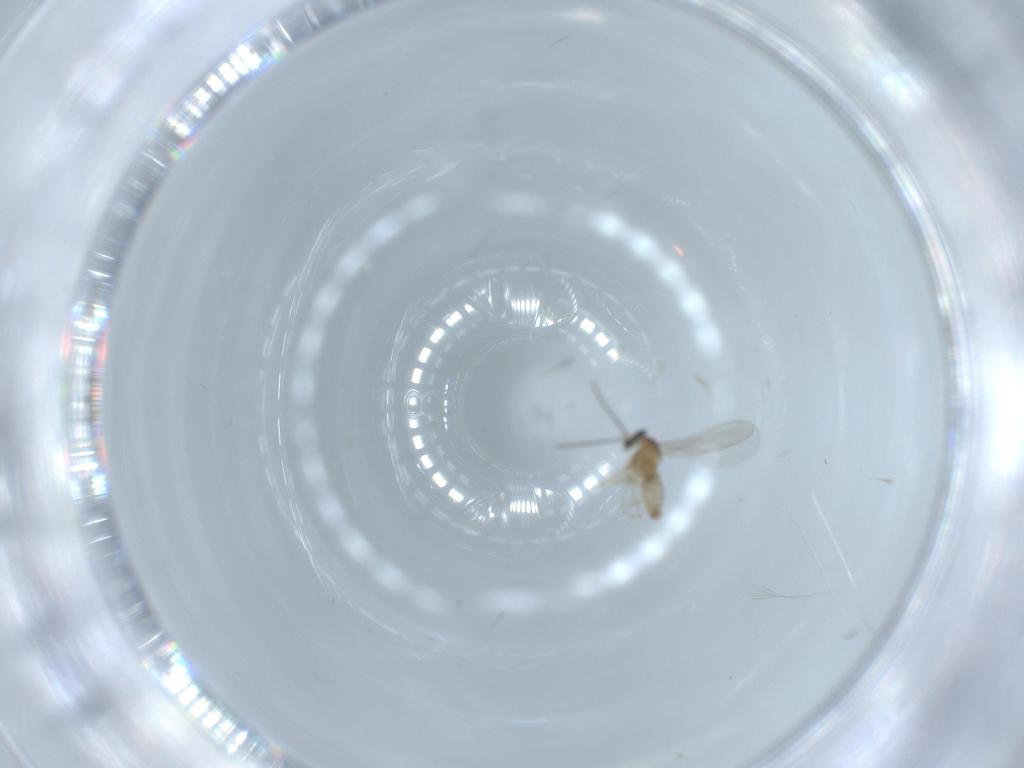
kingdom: Animalia
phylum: Arthropoda
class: Insecta
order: Diptera
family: Cecidomyiidae
